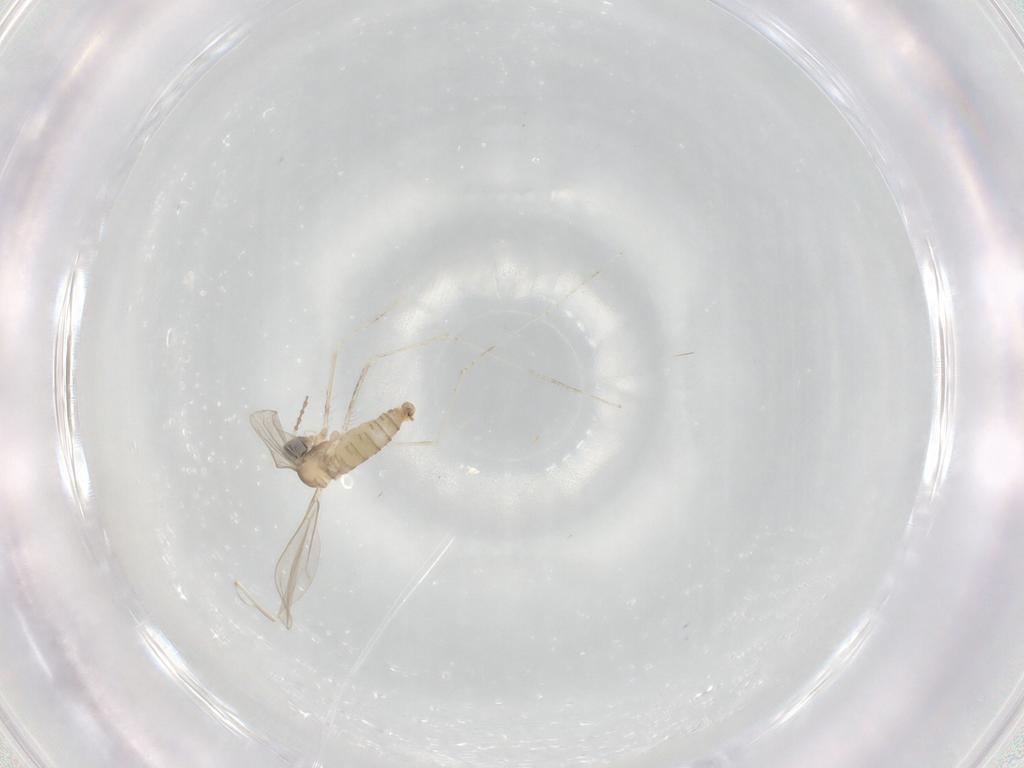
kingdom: Animalia
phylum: Arthropoda
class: Insecta
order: Diptera
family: Cecidomyiidae
